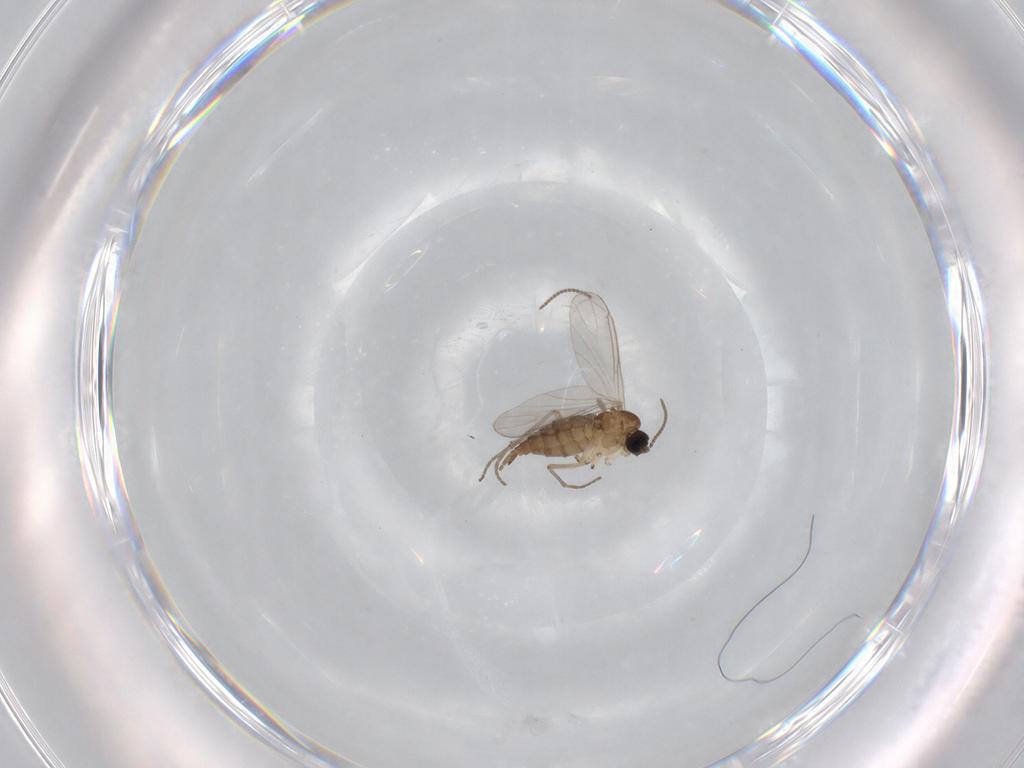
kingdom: Animalia
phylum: Arthropoda
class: Insecta
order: Diptera
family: Sciaridae
